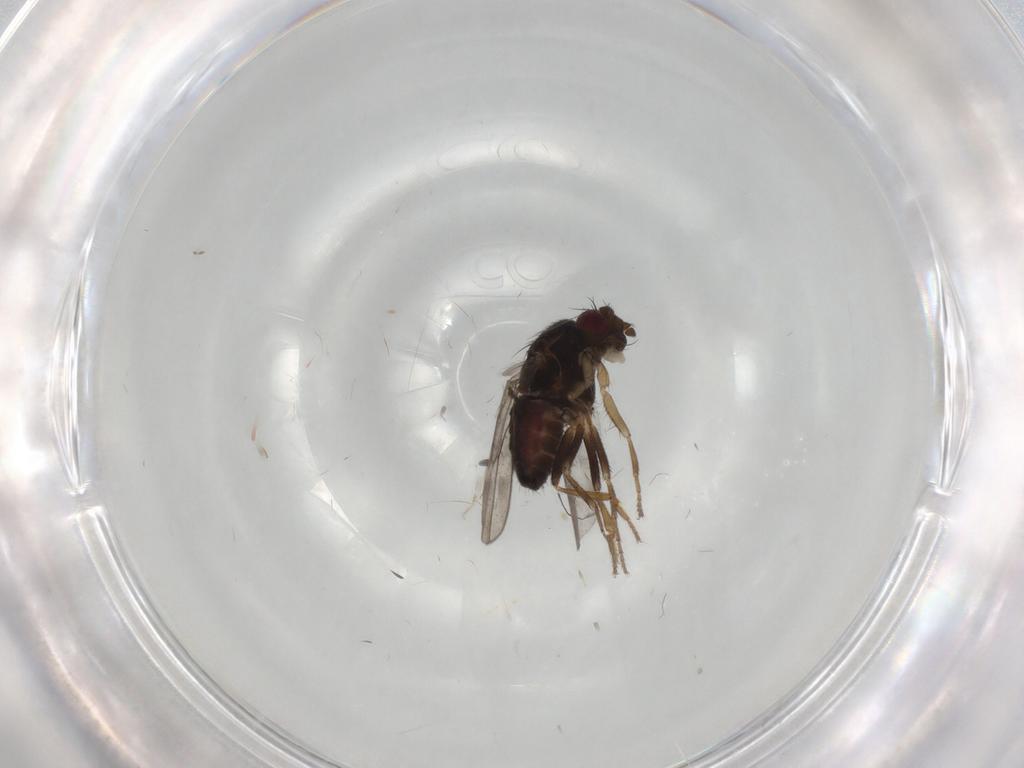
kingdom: Animalia
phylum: Arthropoda
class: Insecta
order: Diptera
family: Sphaeroceridae
